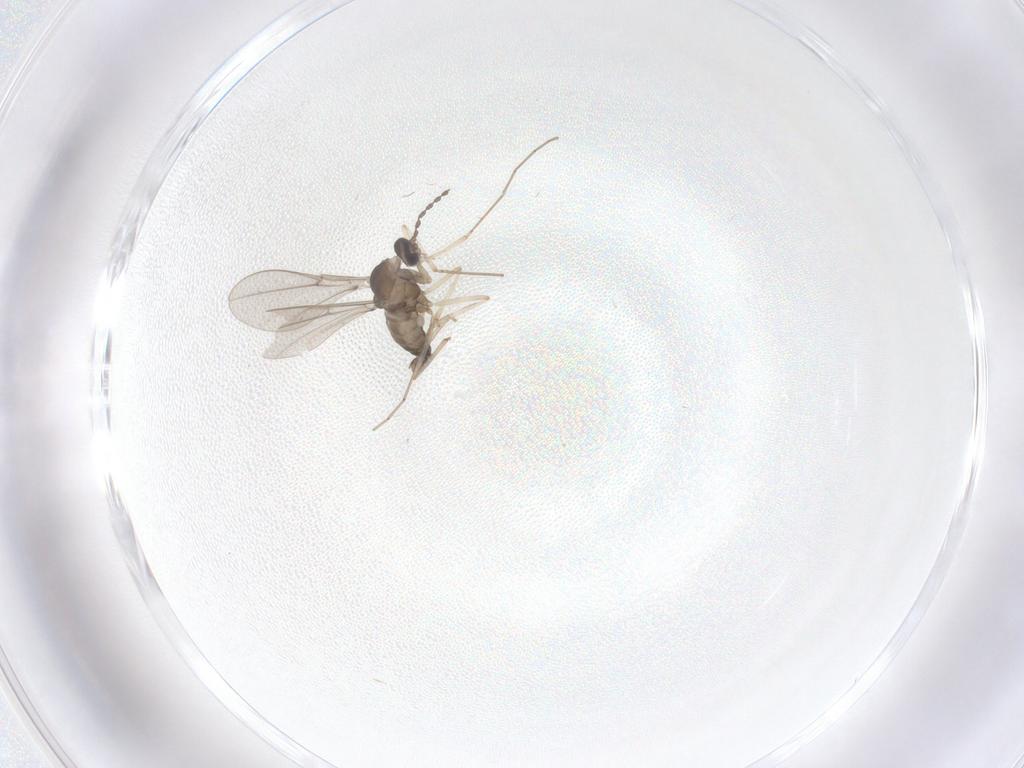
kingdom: Animalia
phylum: Arthropoda
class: Insecta
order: Diptera
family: Cecidomyiidae
